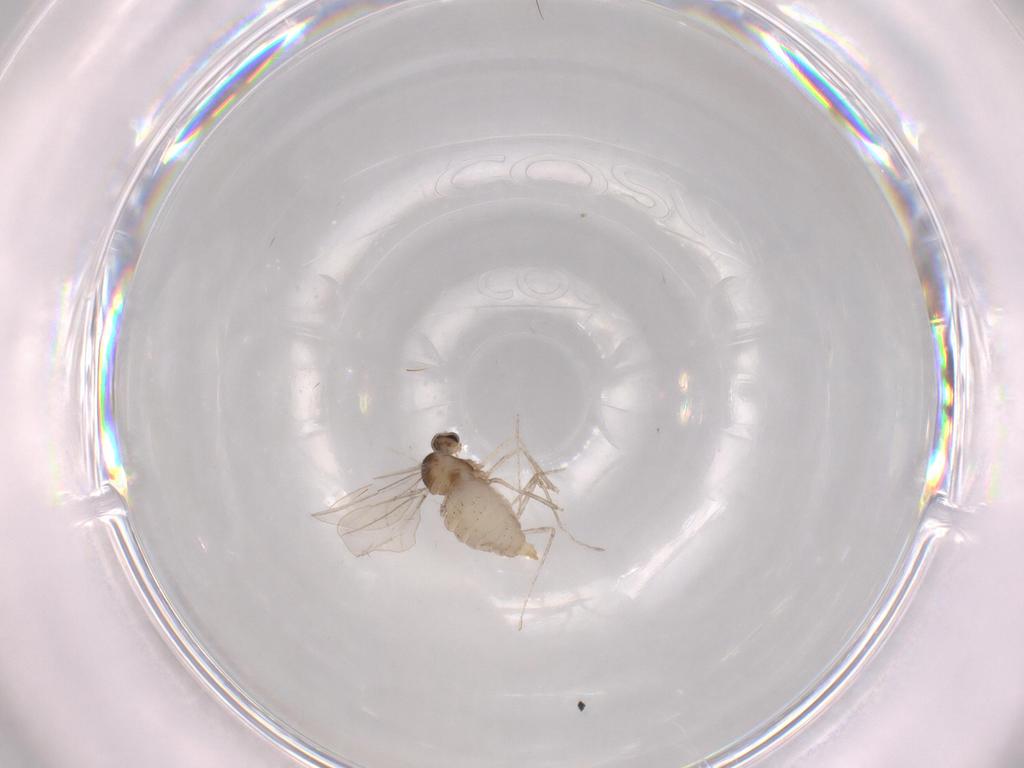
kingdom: Animalia
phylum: Arthropoda
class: Insecta
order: Diptera
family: Cecidomyiidae
